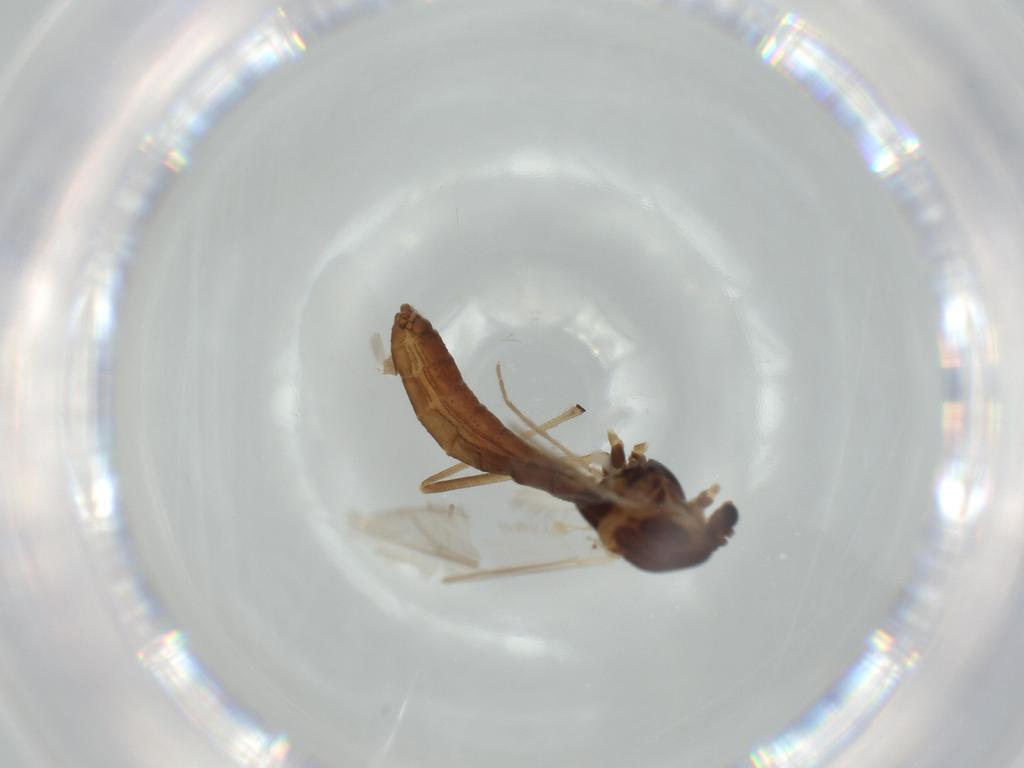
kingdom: Animalia
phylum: Arthropoda
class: Insecta
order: Diptera
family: Chironomidae
